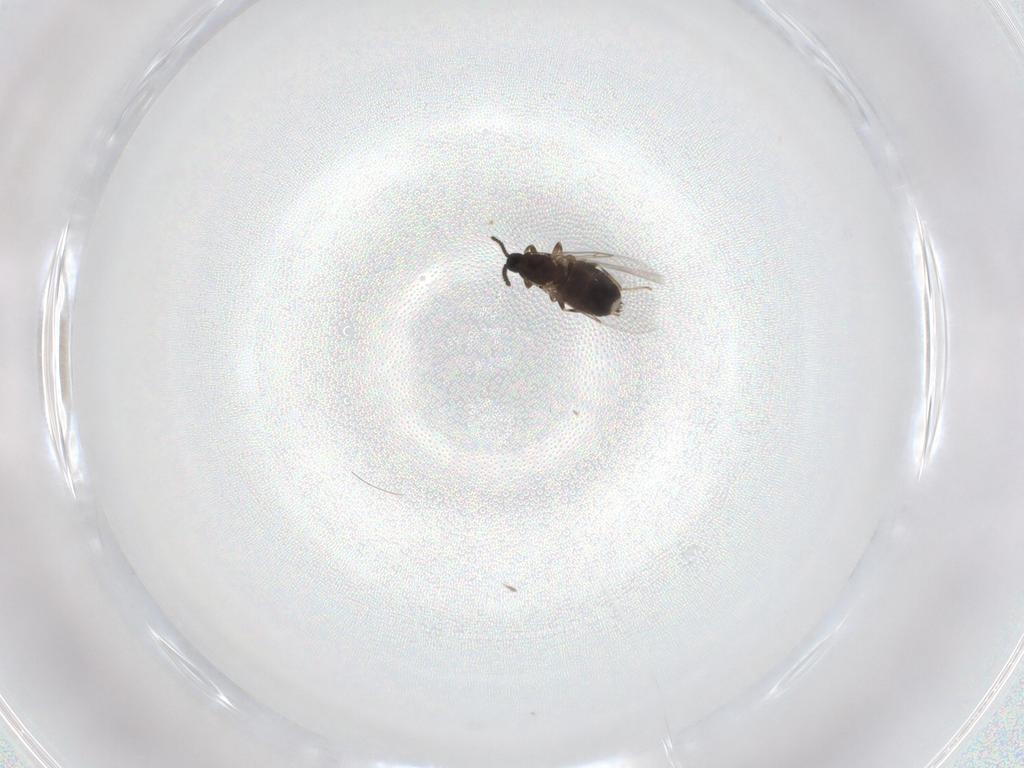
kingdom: Animalia
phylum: Arthropoda
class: Insecta
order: Diptera
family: Scatopsidae
